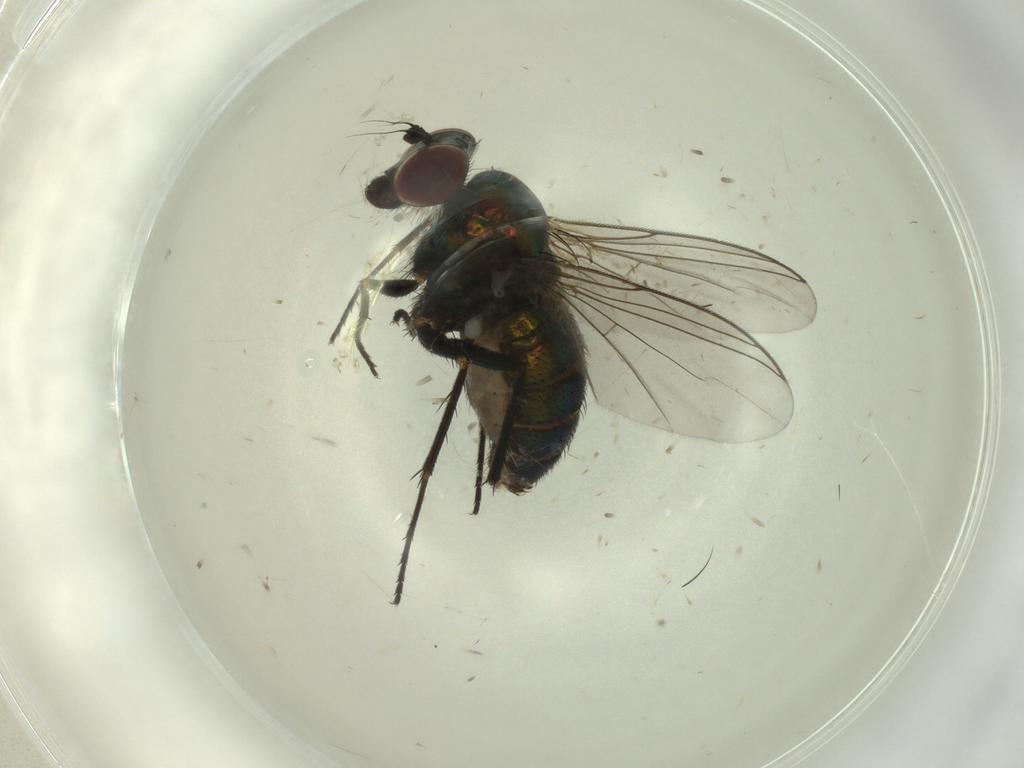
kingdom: Animalia
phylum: Arthropoda
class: Insecta
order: Diptera
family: Dolichopodidae
